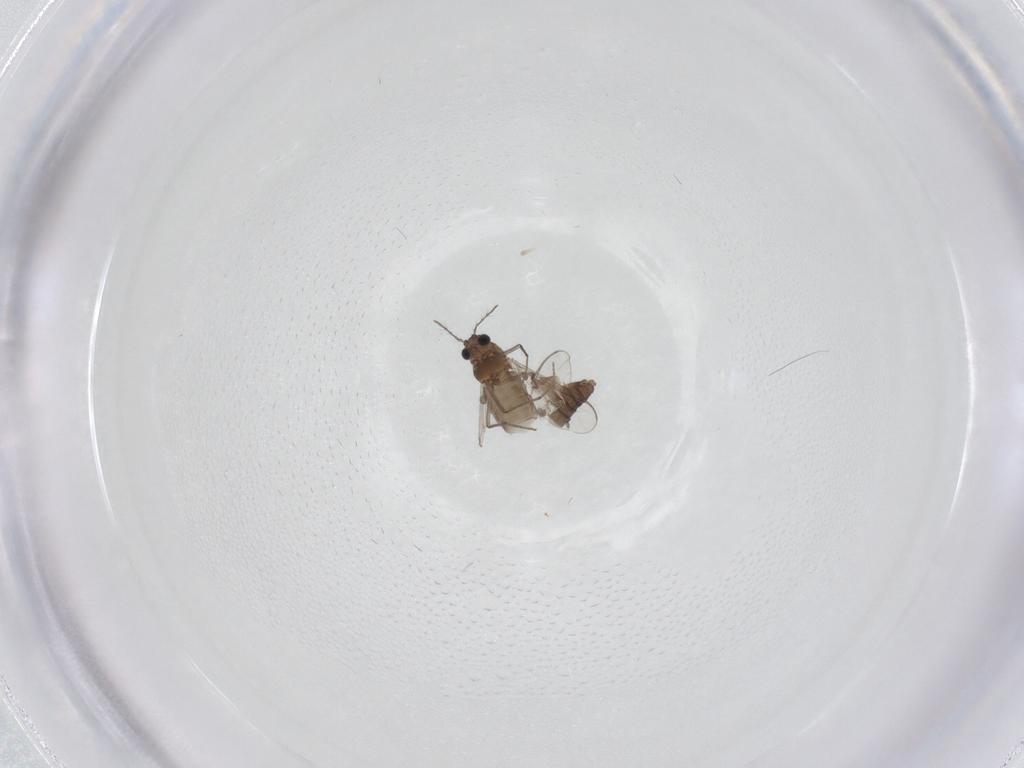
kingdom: Animalia
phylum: Arthropoda
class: Insecta
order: Diptera
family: Chironomidae
